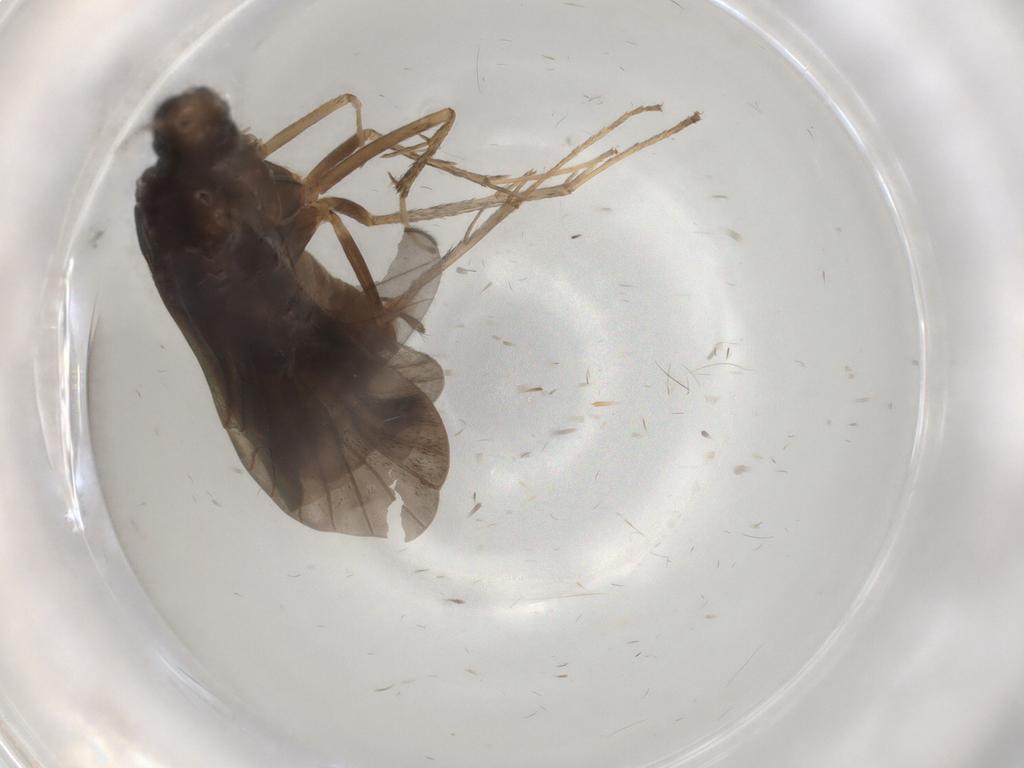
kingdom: Animalia
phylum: Arthropoda
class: Insecta
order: Trichoptera
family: Hydropsychidae
